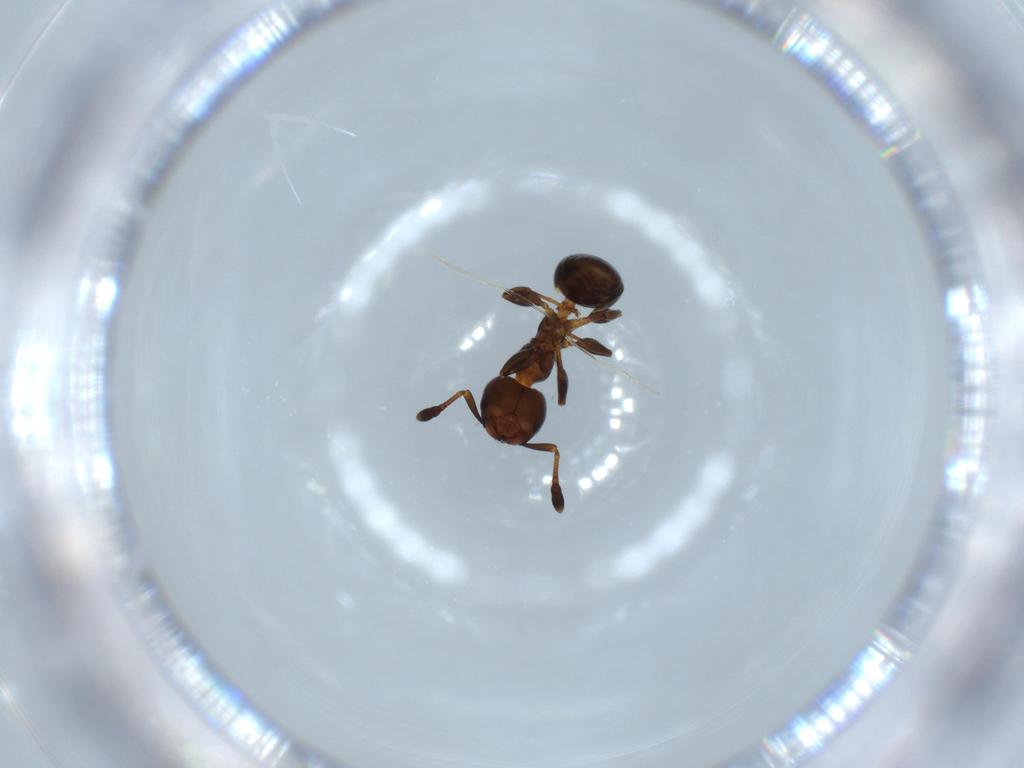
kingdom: Animalia
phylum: Arthropoda
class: Insecta
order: Hymenoptera
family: Formicidae
